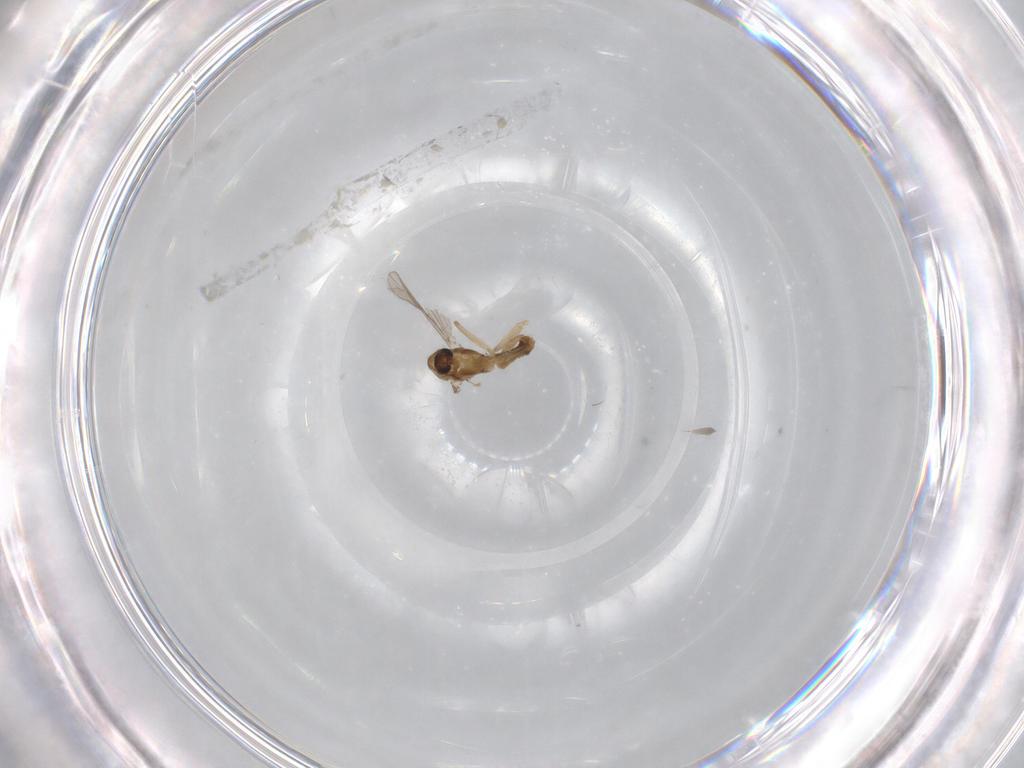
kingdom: Animalia
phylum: Arthropoda
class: Insecta
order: Diptera
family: Chironomidae
